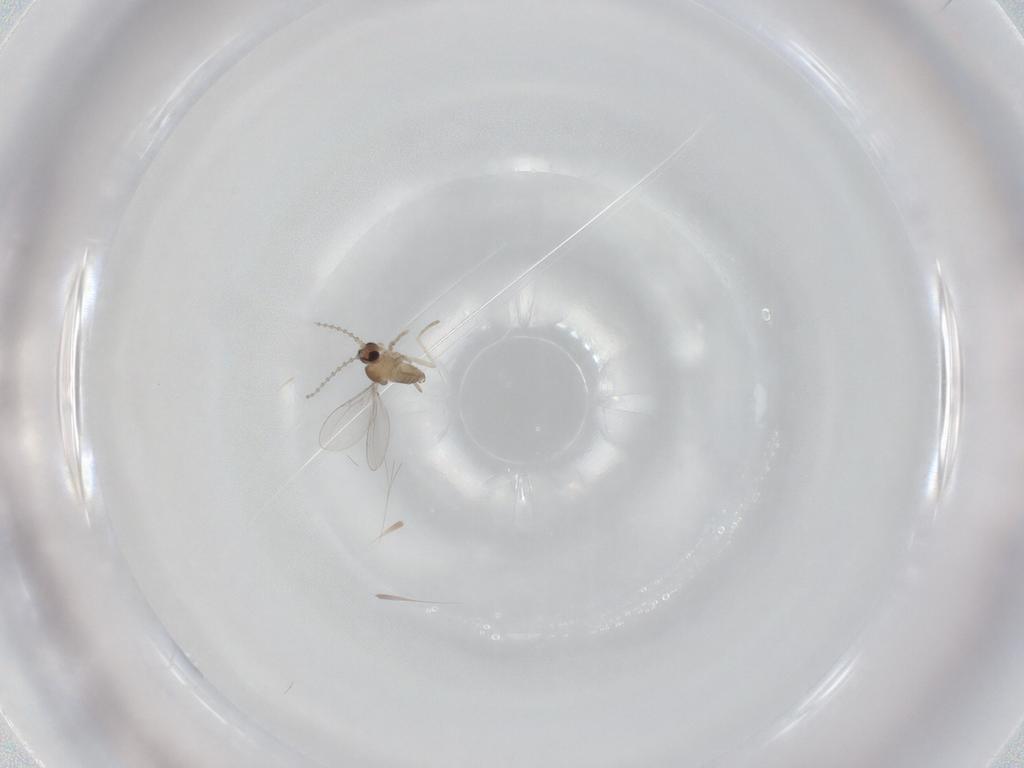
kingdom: Animalia
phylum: Arthropoda
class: Insecta
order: Diptera
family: Cecidomyiidae
